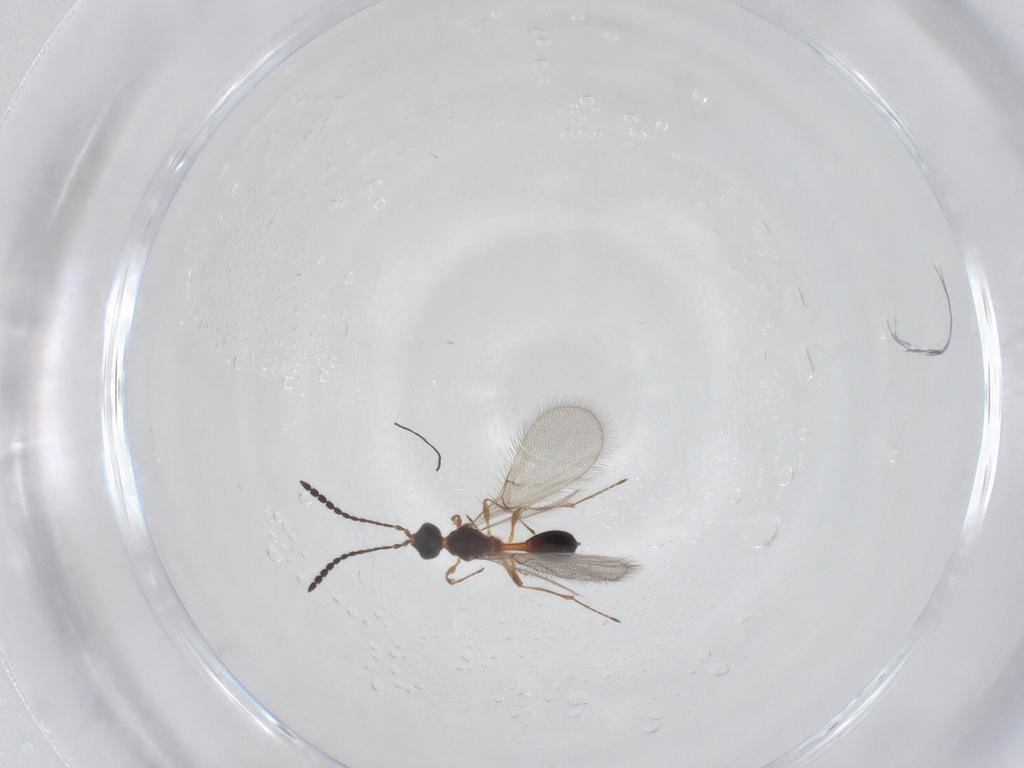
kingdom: Animalia
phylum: Arthropoda
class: Insecta
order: Hymenoptera
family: Diapriidae
